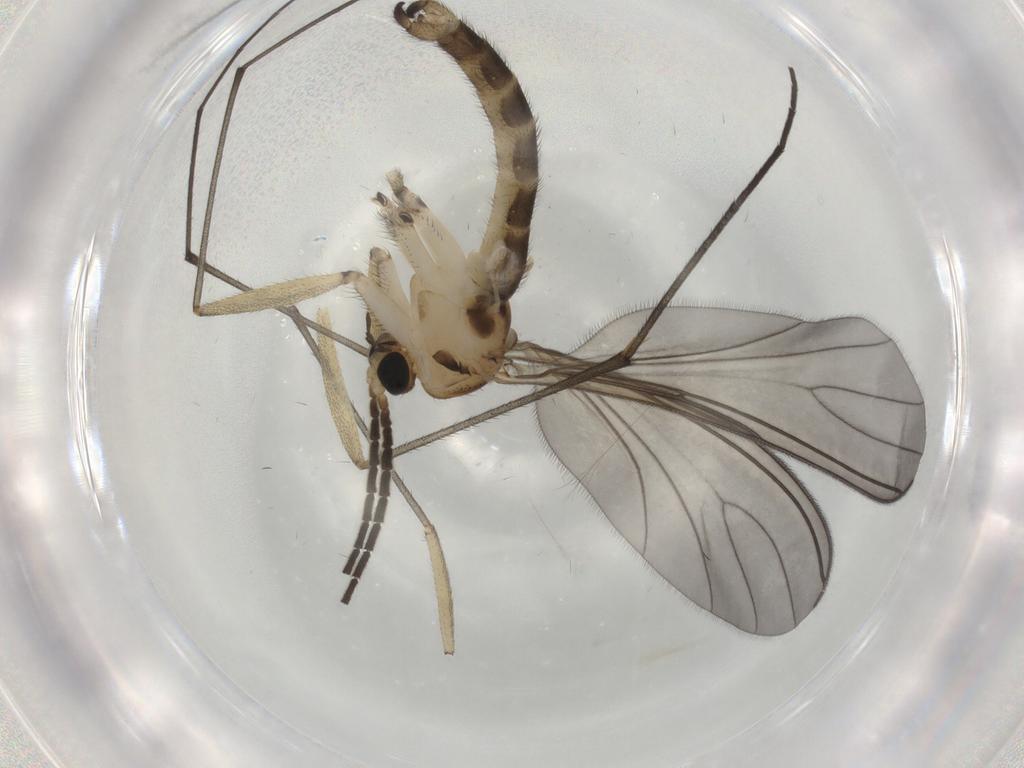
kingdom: Animalia
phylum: Arthropoda
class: Insecta
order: Diptera
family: Sciaridae
